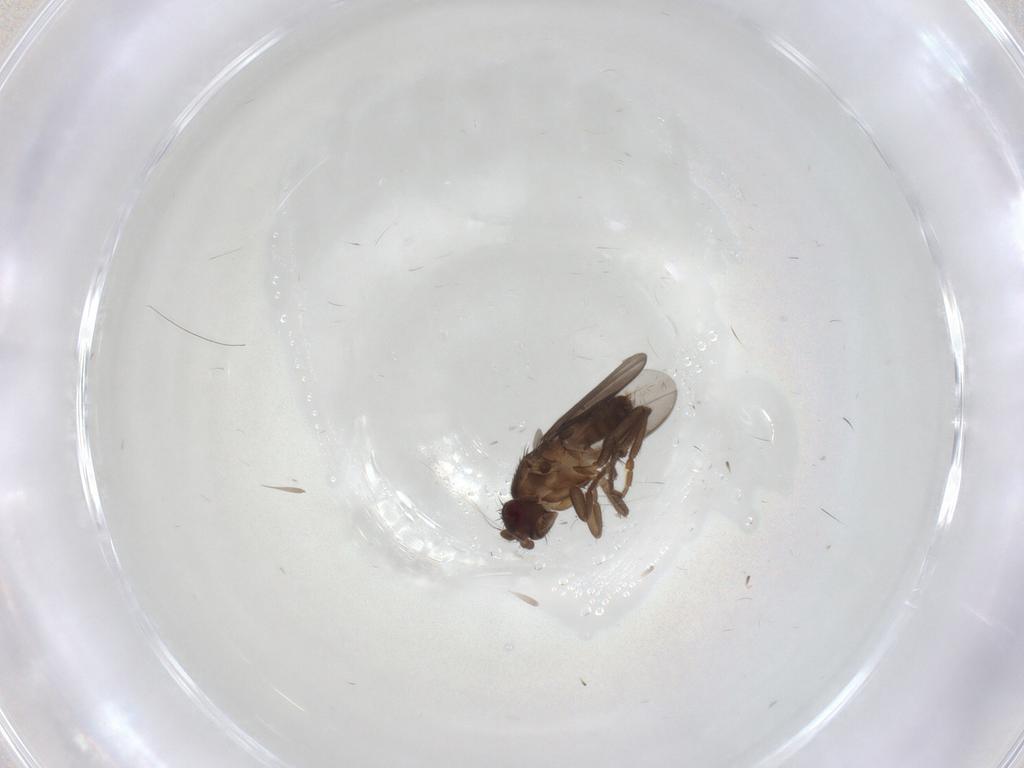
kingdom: Animalia
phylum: Arthropoda
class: Insecta
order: Diptera
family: Sphaeroceridae
